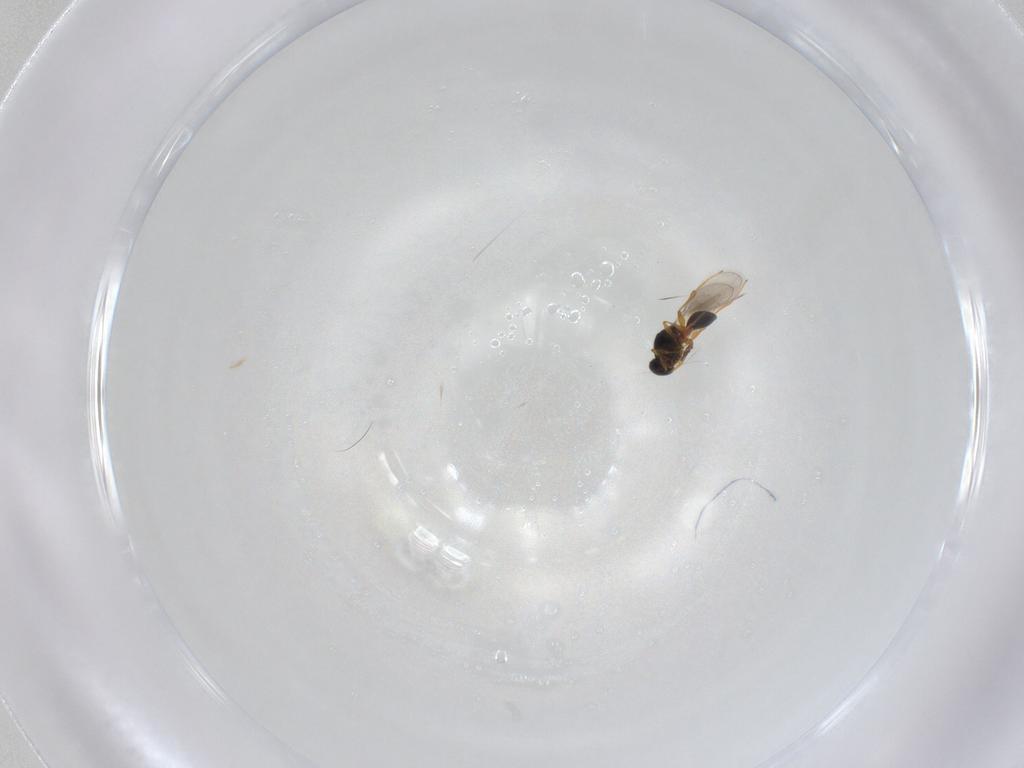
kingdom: Animalia
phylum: Arthropoda
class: Insecta
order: Hymenoptera
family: Platygastridae
